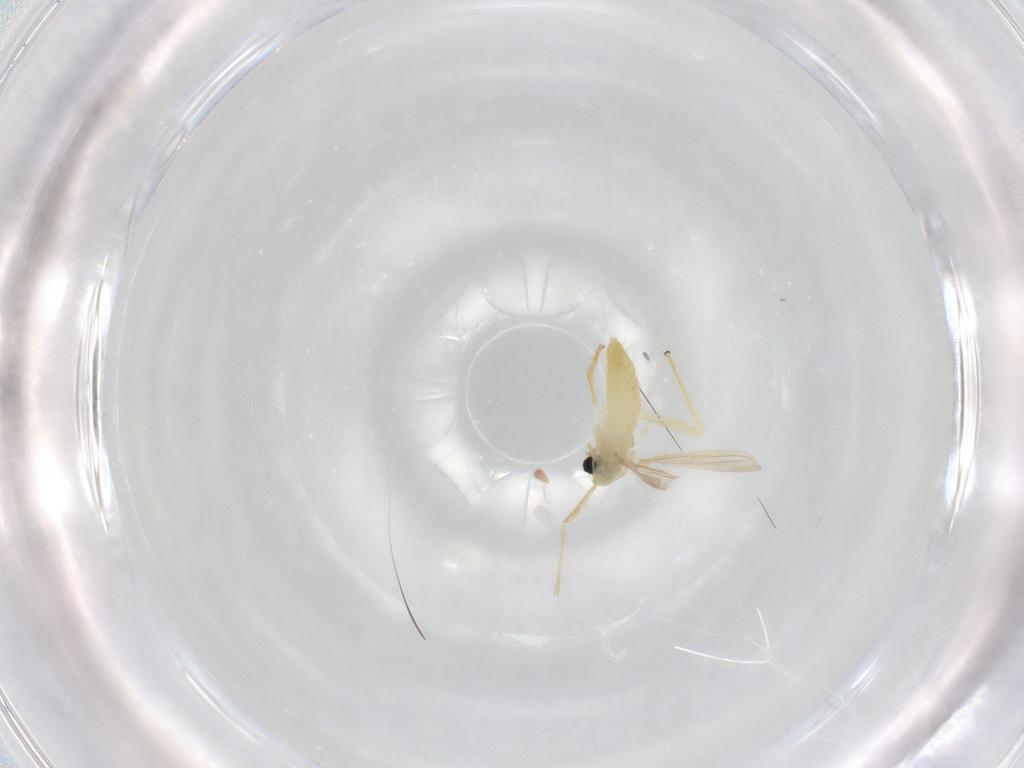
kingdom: Animalia
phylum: Arthropoda
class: Insecta
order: Diptera
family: Chironomidae
